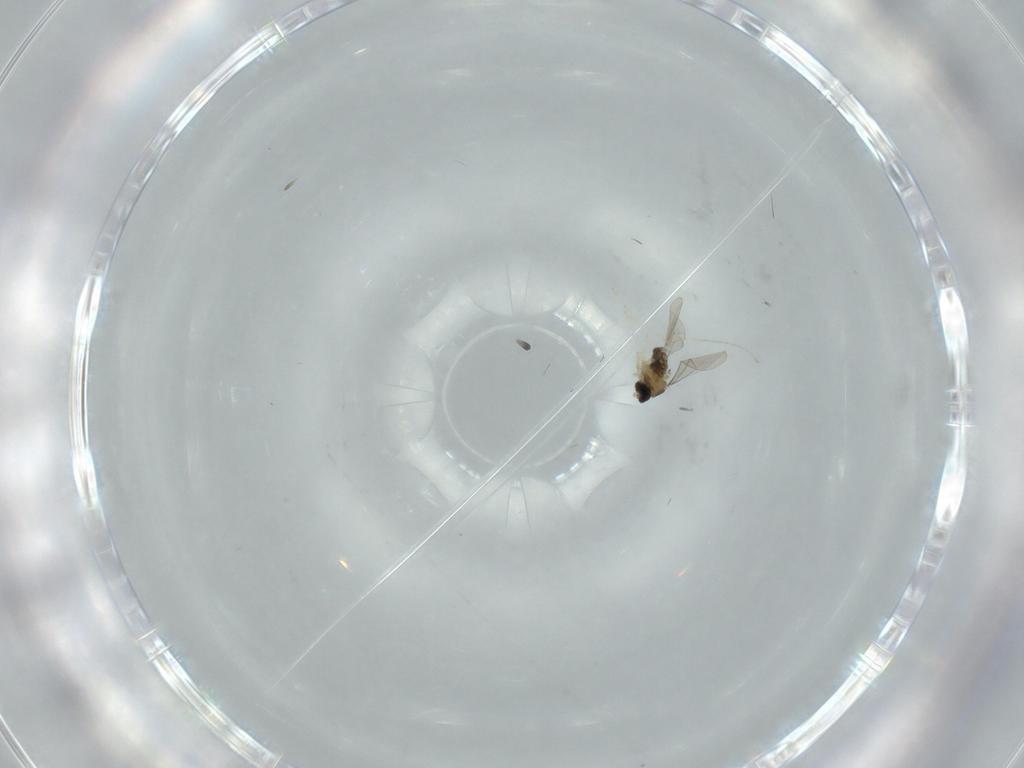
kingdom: Animalia
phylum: Arthropoda
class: Insecta
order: Diptera
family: Cecidomyiidae
